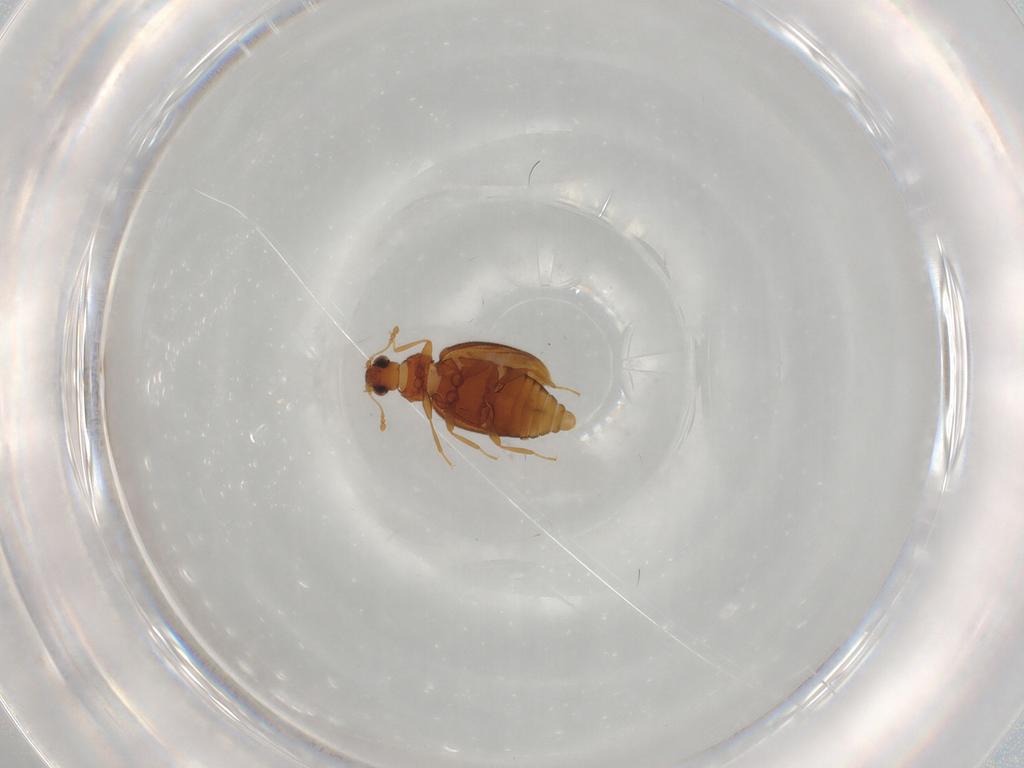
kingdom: Animalia
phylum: Arthropoda
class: Insecta
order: Coleoptera
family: Latridiidae
